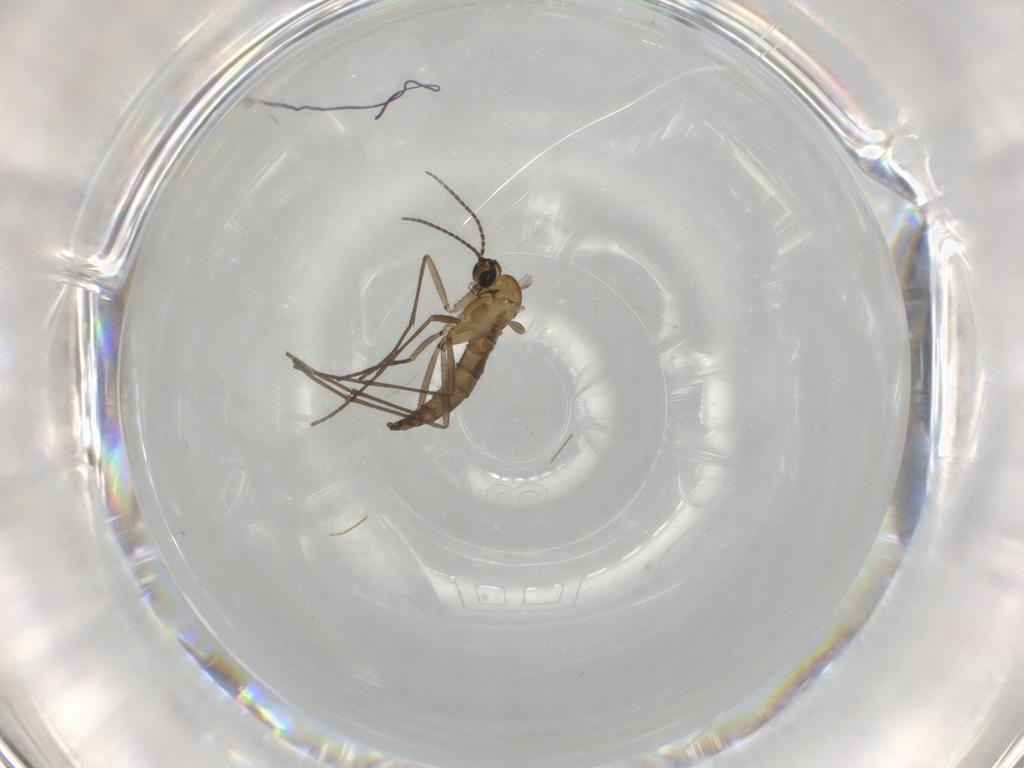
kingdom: Animalia
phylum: Arthropoda
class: Insecta
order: Diptera
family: Sciaridae
